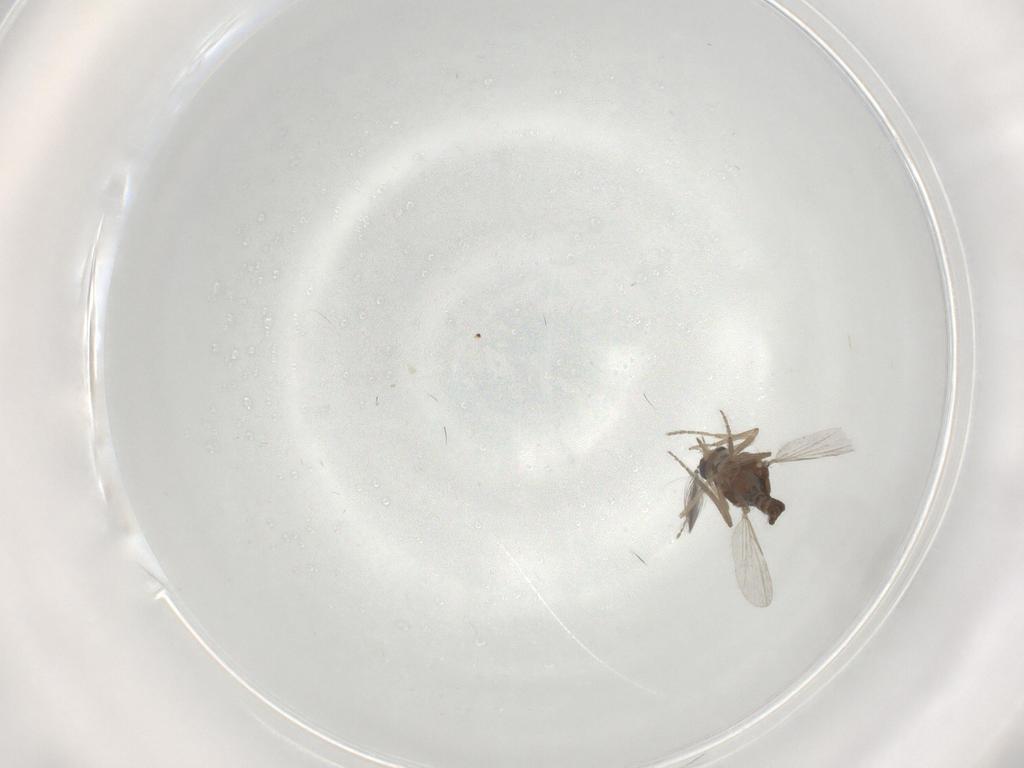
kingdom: Animalia
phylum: Arthropoda
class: Insecta
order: Diptera
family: Ceratopogonidae
